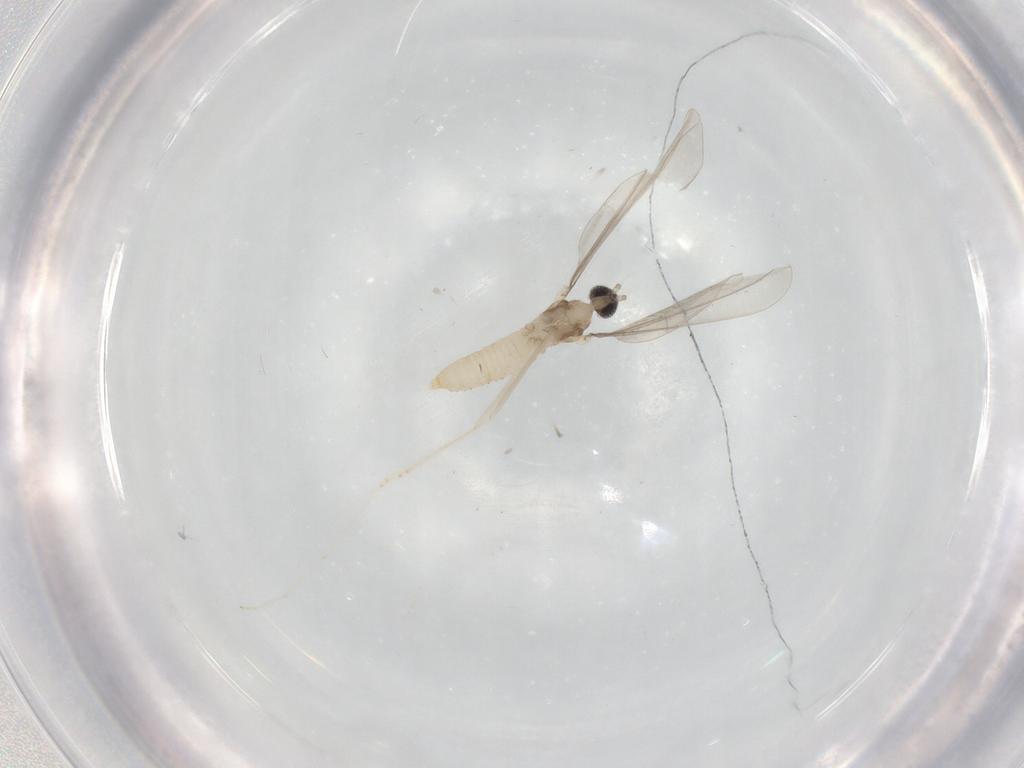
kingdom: Animalia
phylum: Arthropoda
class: Insecta
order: Diptera
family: Cecidomyiidae
